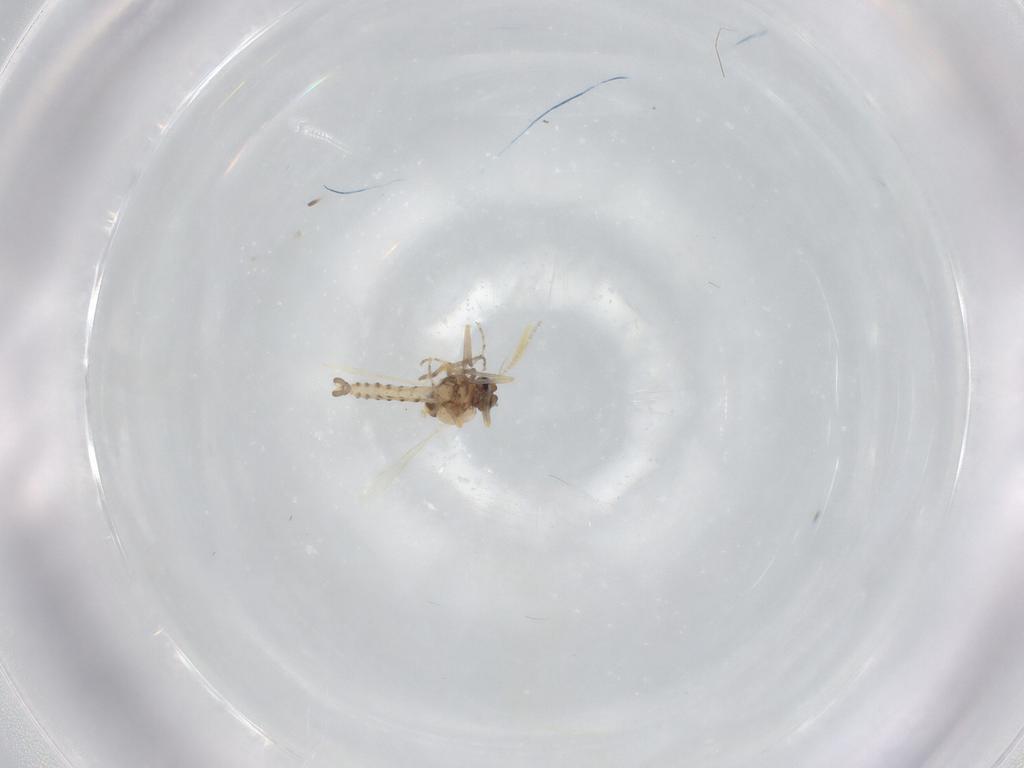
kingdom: Animalia
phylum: Arthropoda
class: Insecta
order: Diptera
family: Ceratopogonidae
